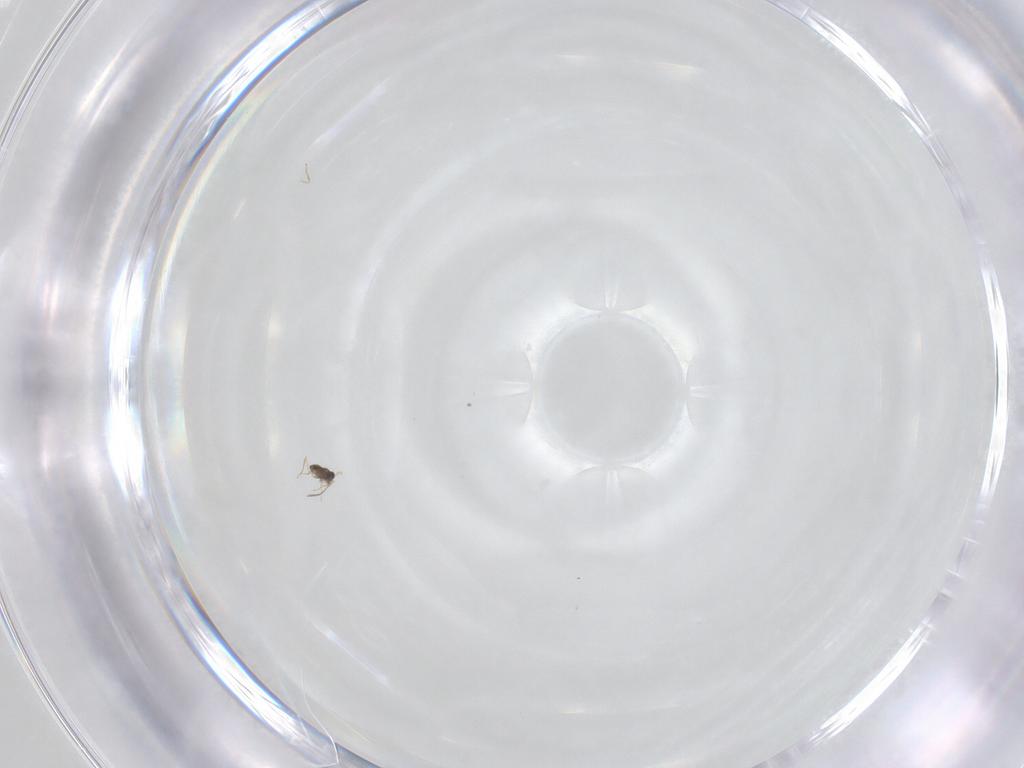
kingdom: Animalia
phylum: Arthropoda
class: Insecta
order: Hymenoptera
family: Mymaridae
